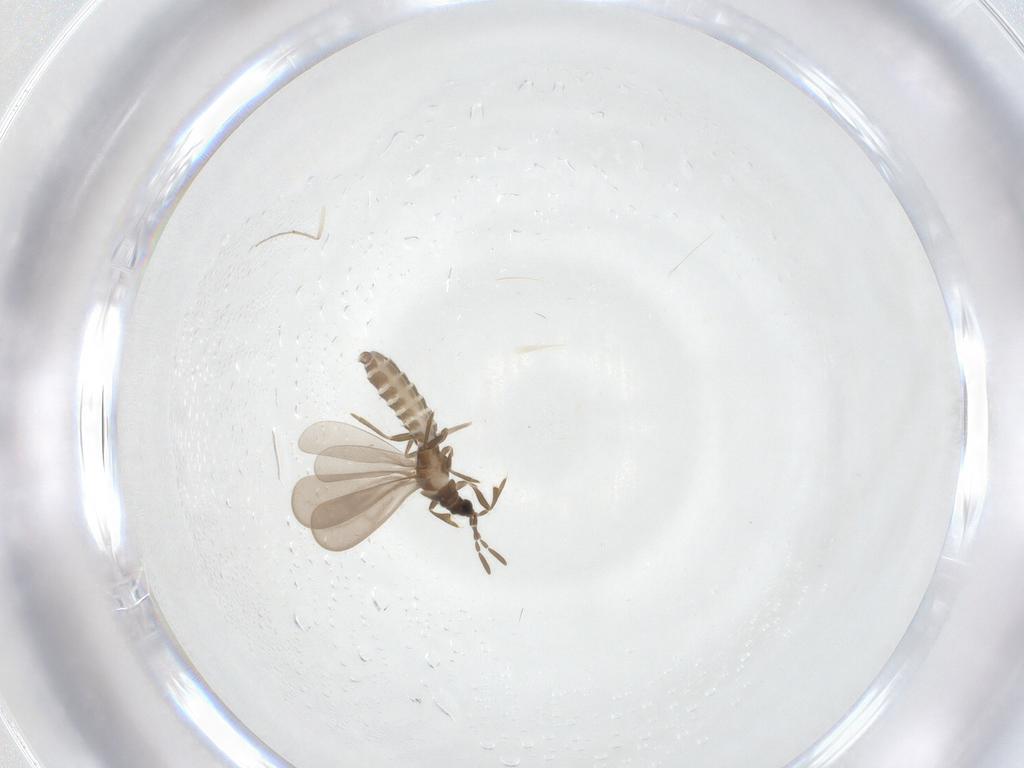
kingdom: Animalia
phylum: Arthropoda
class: Insecta
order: Hemiptera
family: Enicocephalidae
